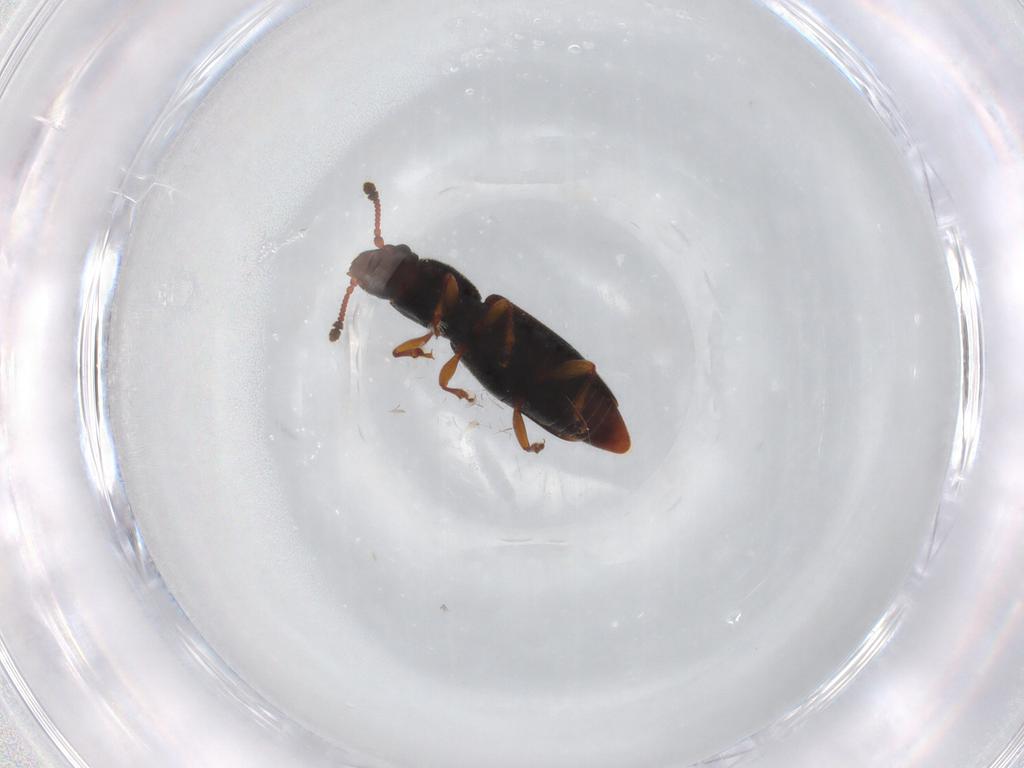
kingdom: Animalia
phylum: Arthropoda
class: Insecta
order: Coleoptera
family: Monotomidae
